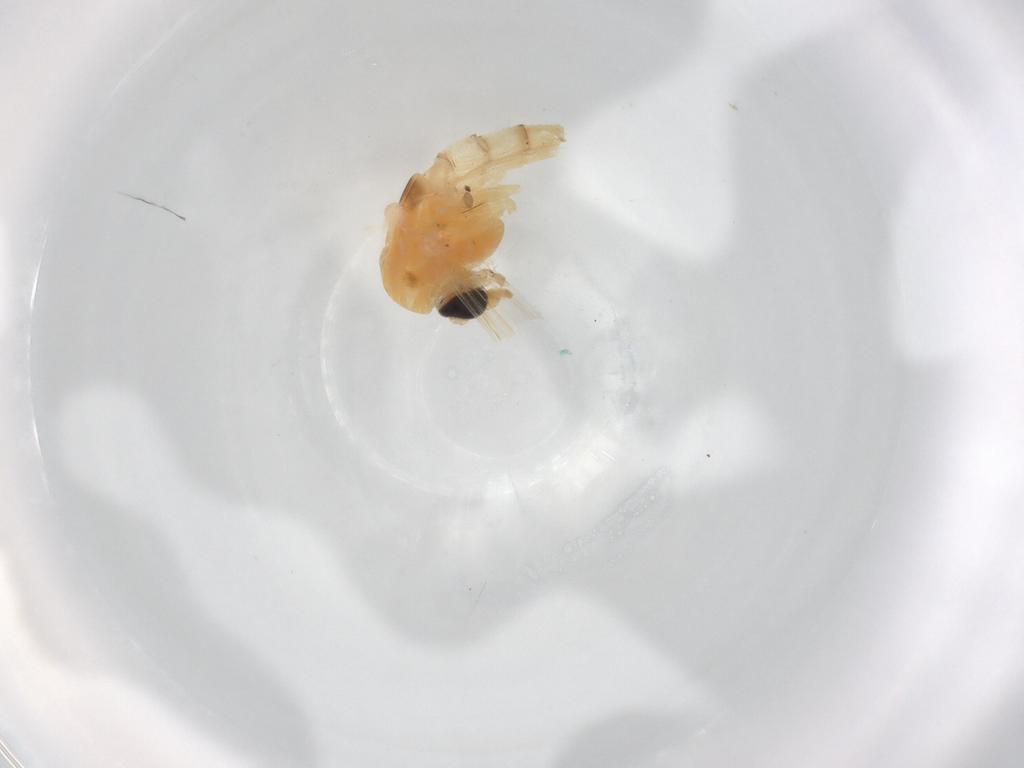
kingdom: Animalia
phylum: Arthropoda
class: Insecta
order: Diptera
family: Chironomidae
